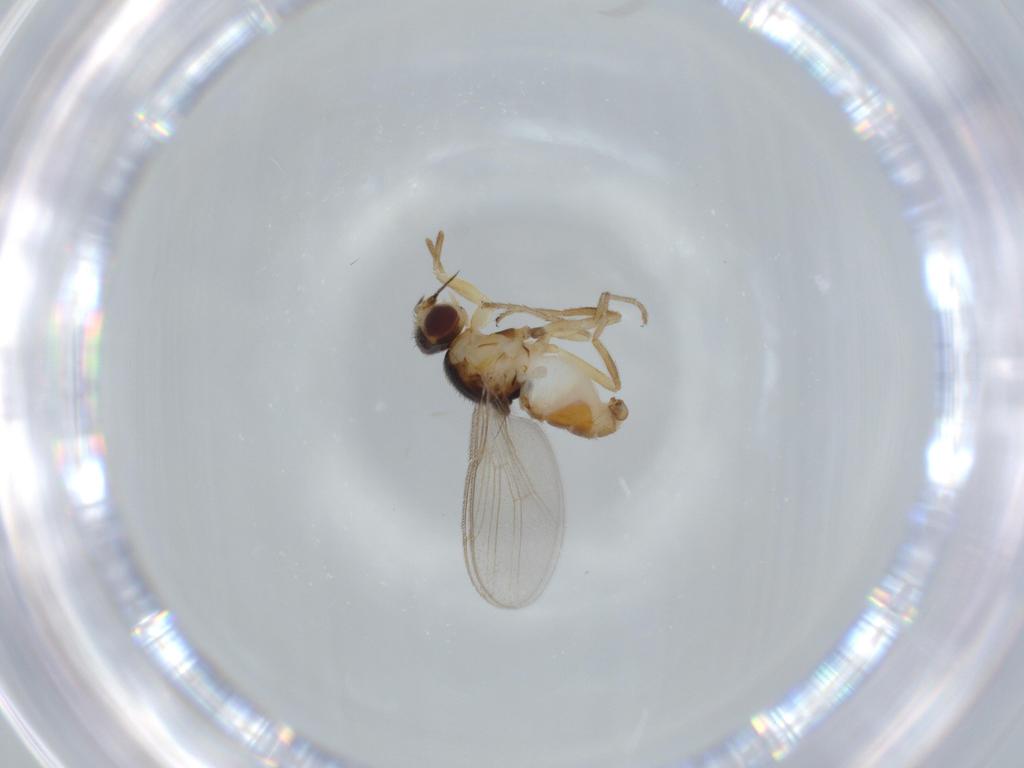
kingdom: Animalia
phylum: Arthropoda
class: Insecta
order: Diptera
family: Chloropidae
